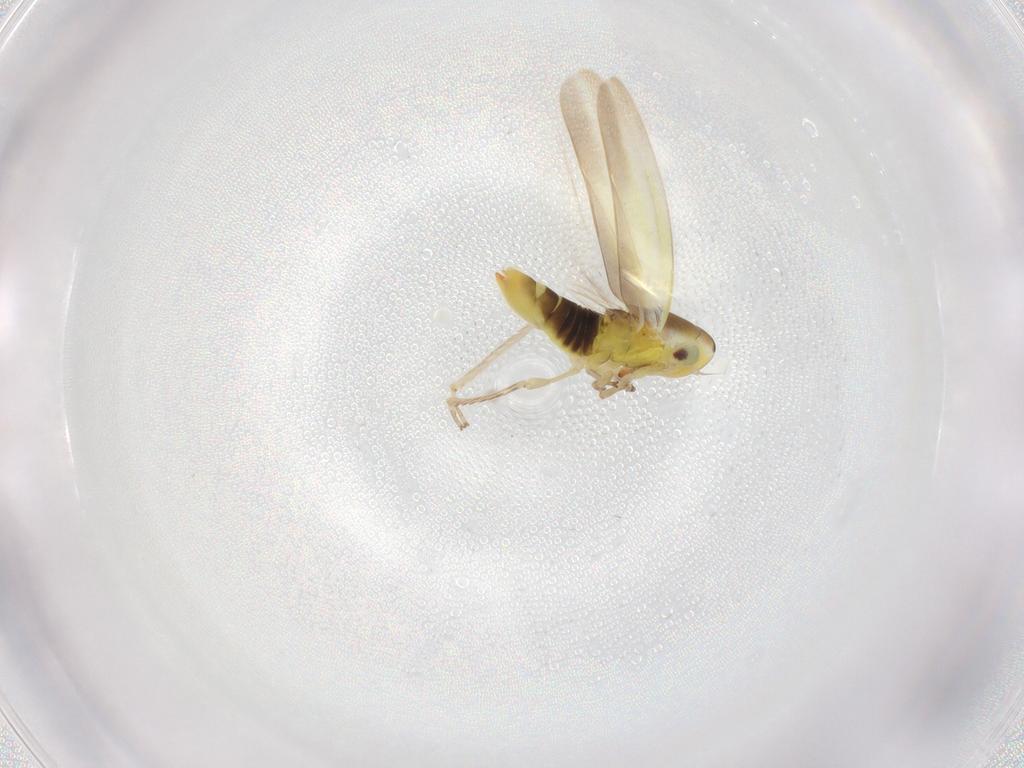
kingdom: Animalia
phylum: Arthropoda
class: Insecta
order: Hemiptera
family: Cicadellidae
